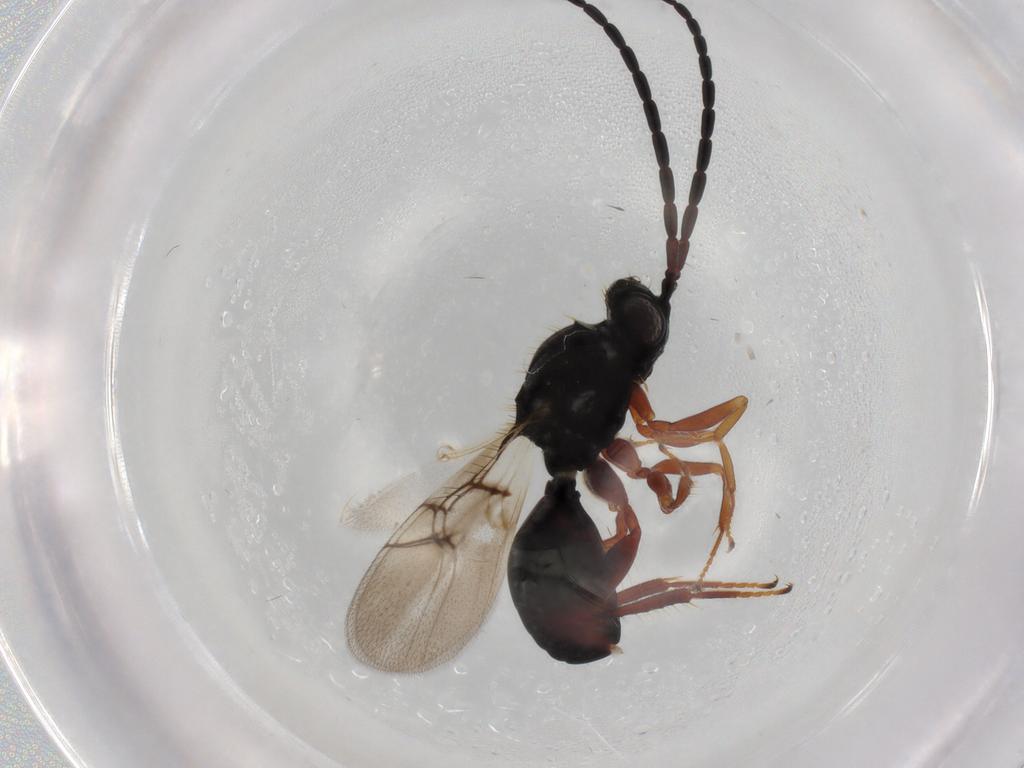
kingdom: Animalia
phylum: Arthropoda
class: Insecta
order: Hymenoptera
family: Figitidae
